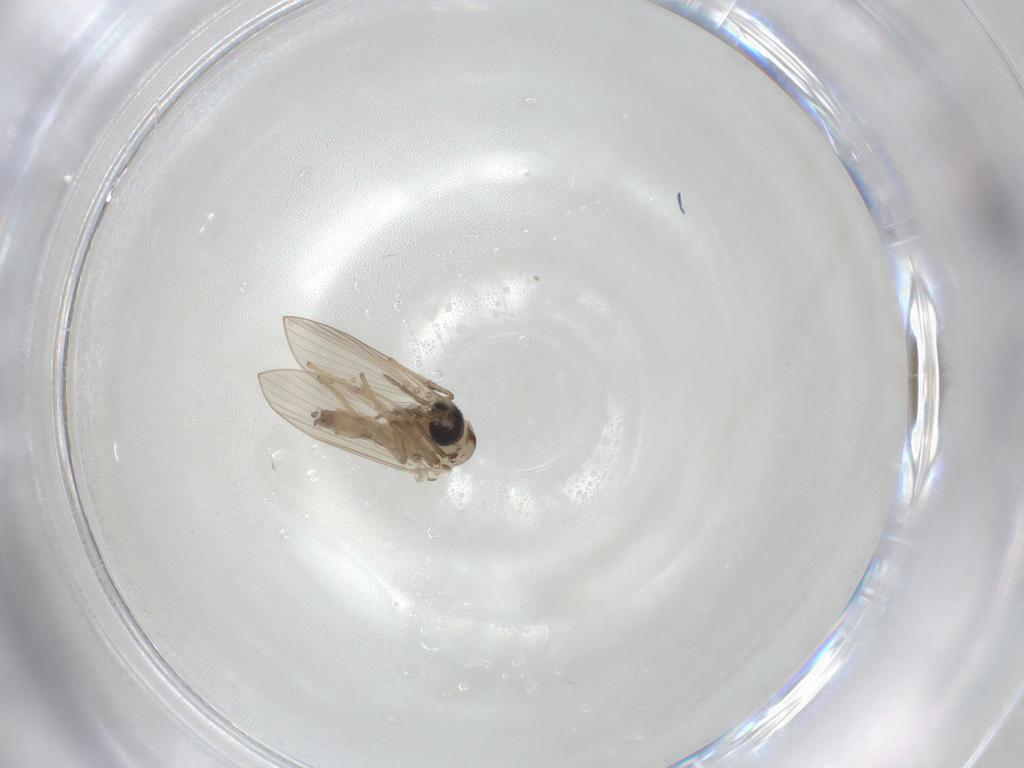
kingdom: Animalia
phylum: Arthropoda
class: Insecta
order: Diptera
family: Psychodidae
